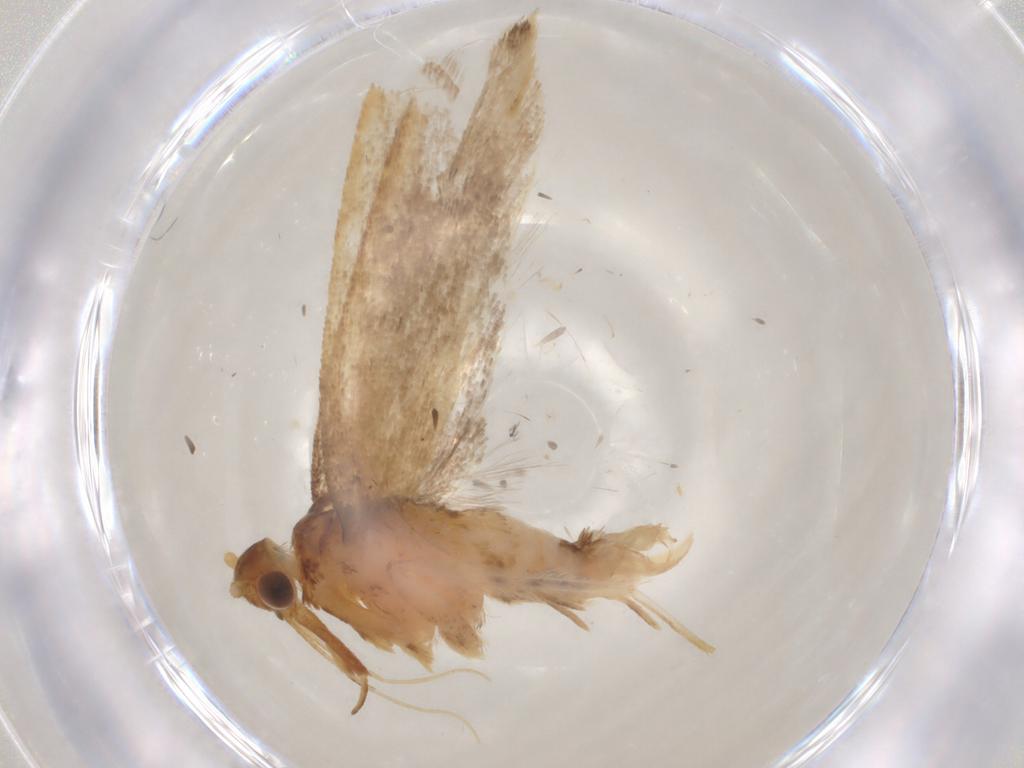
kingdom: Animalia
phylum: Arthropoda
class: Insecta
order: Lepidoptera
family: Lecithoceridae
